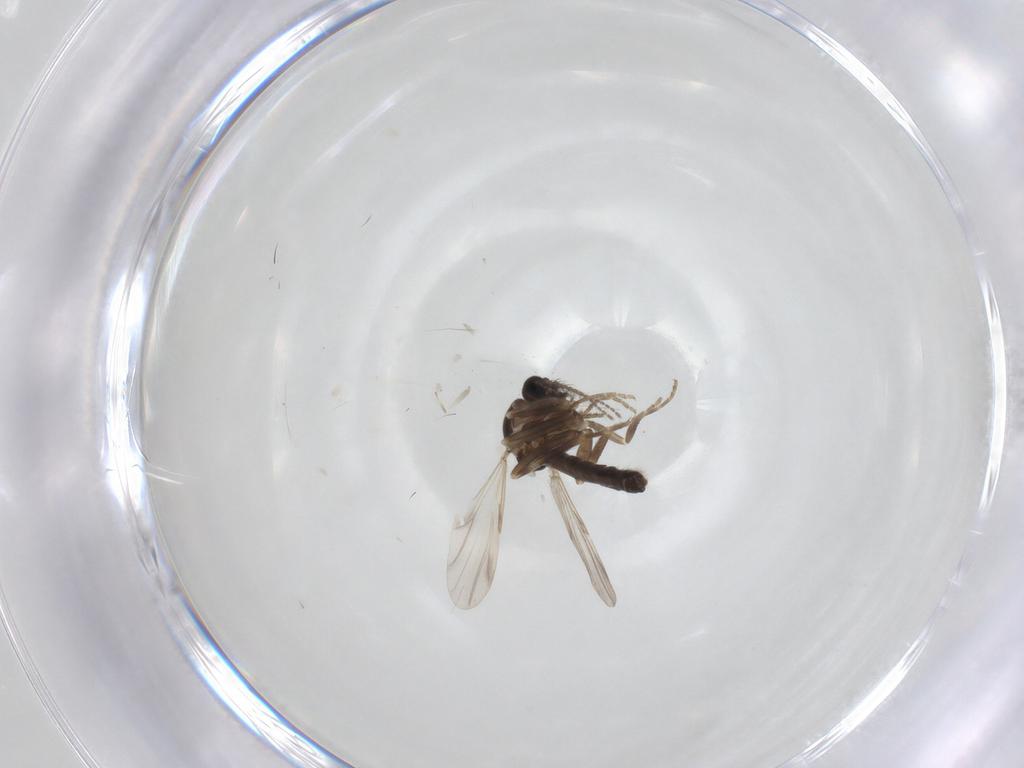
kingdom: Animalia
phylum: Arthropoda
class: Insecta
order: Diptera
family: Ceratopogonidae
